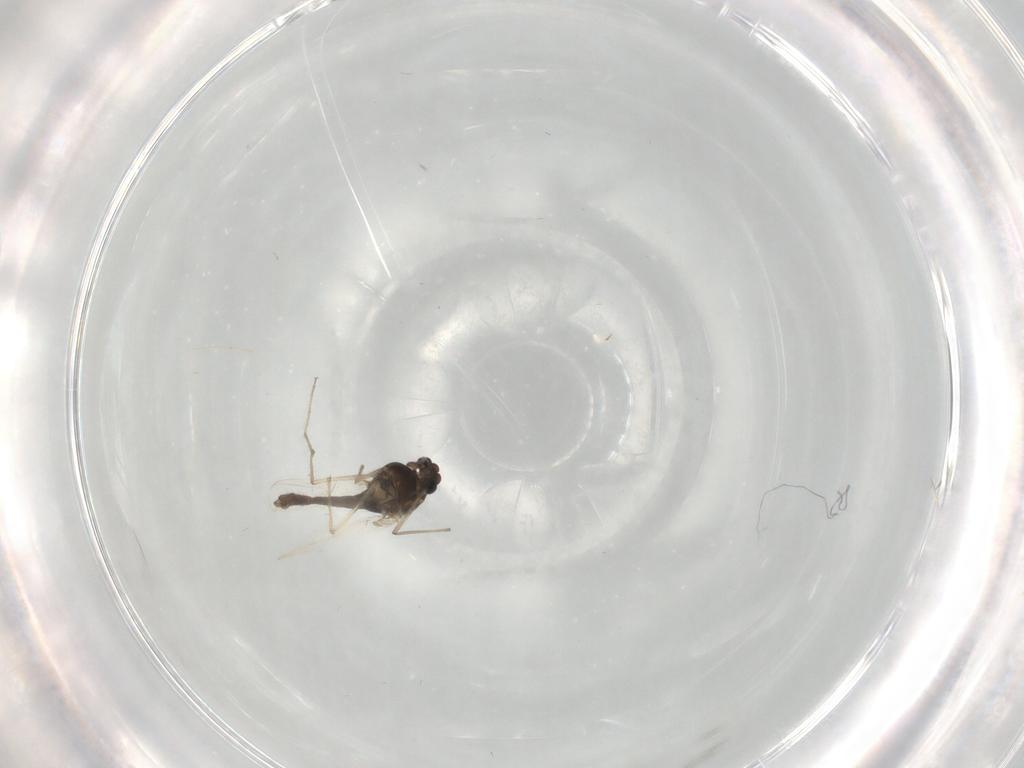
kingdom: Animalia
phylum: Arthropoda
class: Insecta
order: Diptera
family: Chironomidae
